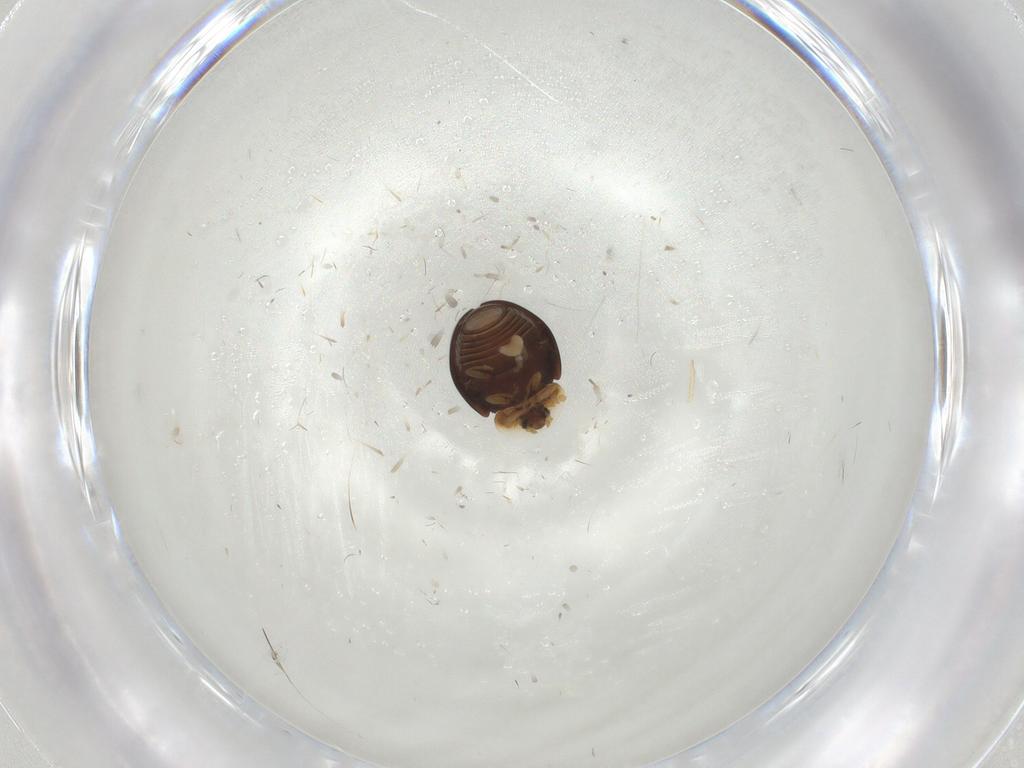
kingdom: Animalia
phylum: Arthropoda
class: Insecta
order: Coleoptera
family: Corylophidae
